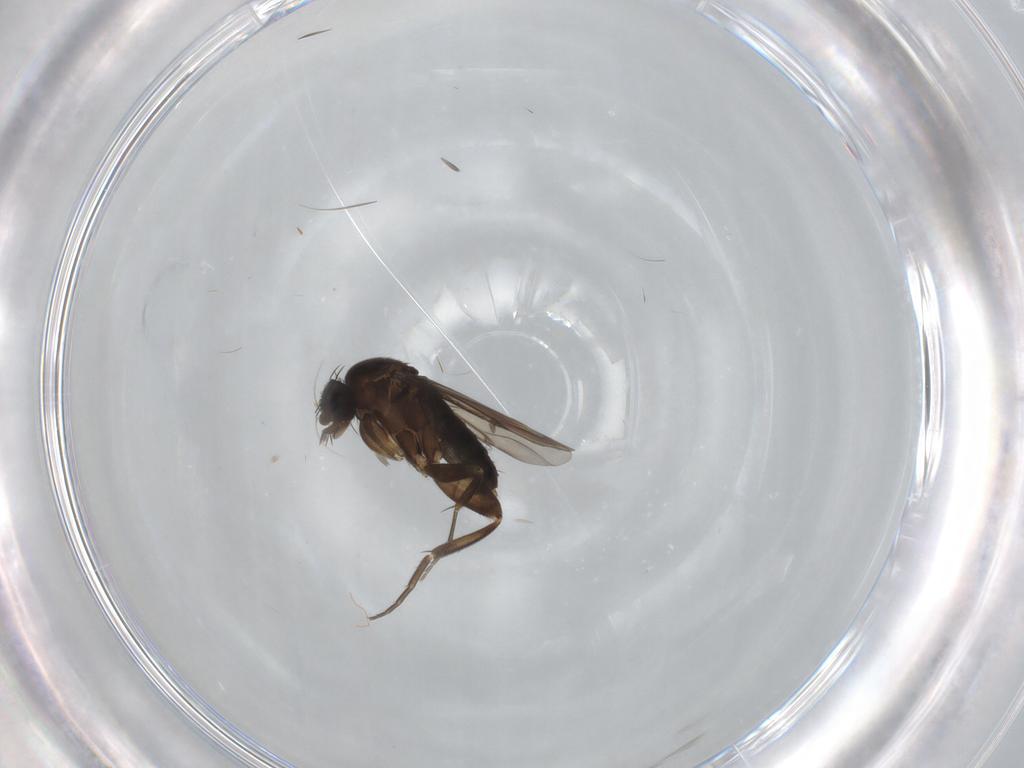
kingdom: Animalia
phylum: Arthropoda
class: Insecta
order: Diptera
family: Phoridae
